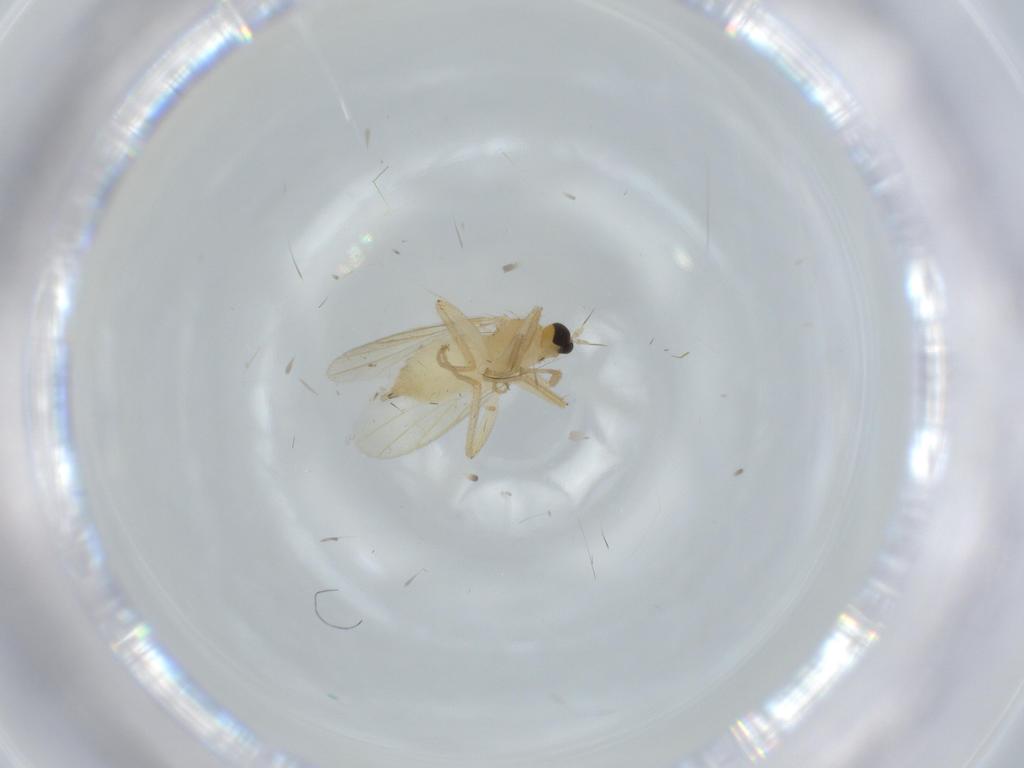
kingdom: Animalia
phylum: Arthropoda
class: Insecta
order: Diptera
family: Hybotidae
